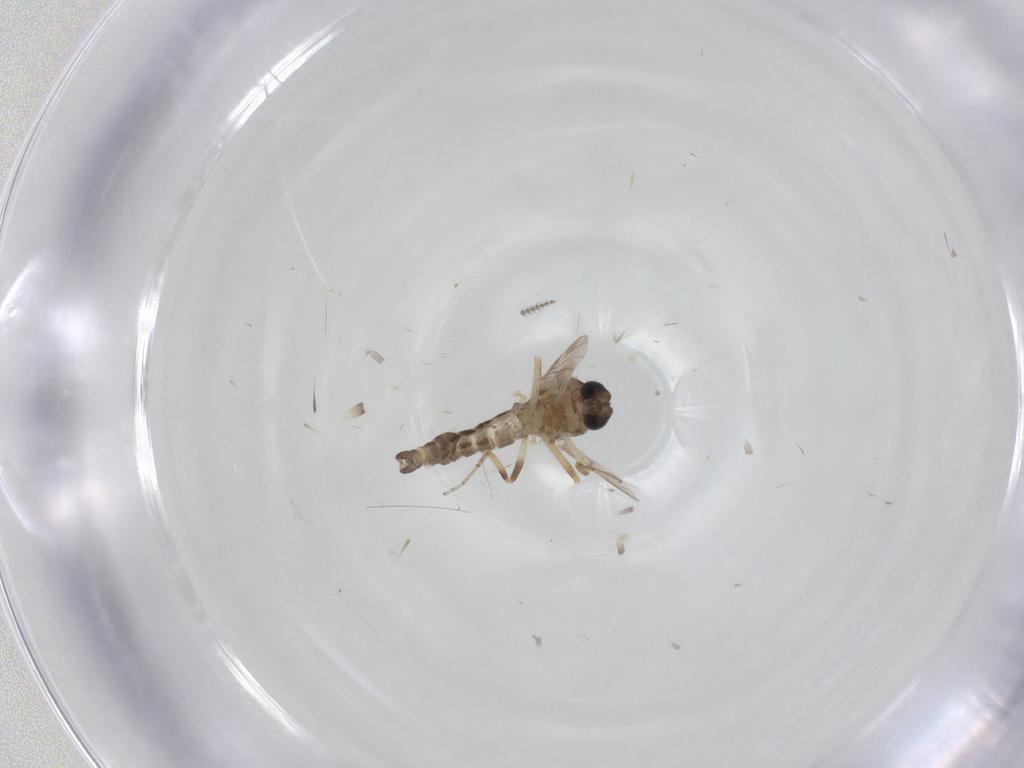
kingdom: Animalia
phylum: Arthropoda
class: Insecta
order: Diptera
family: Ceratopogonidae
